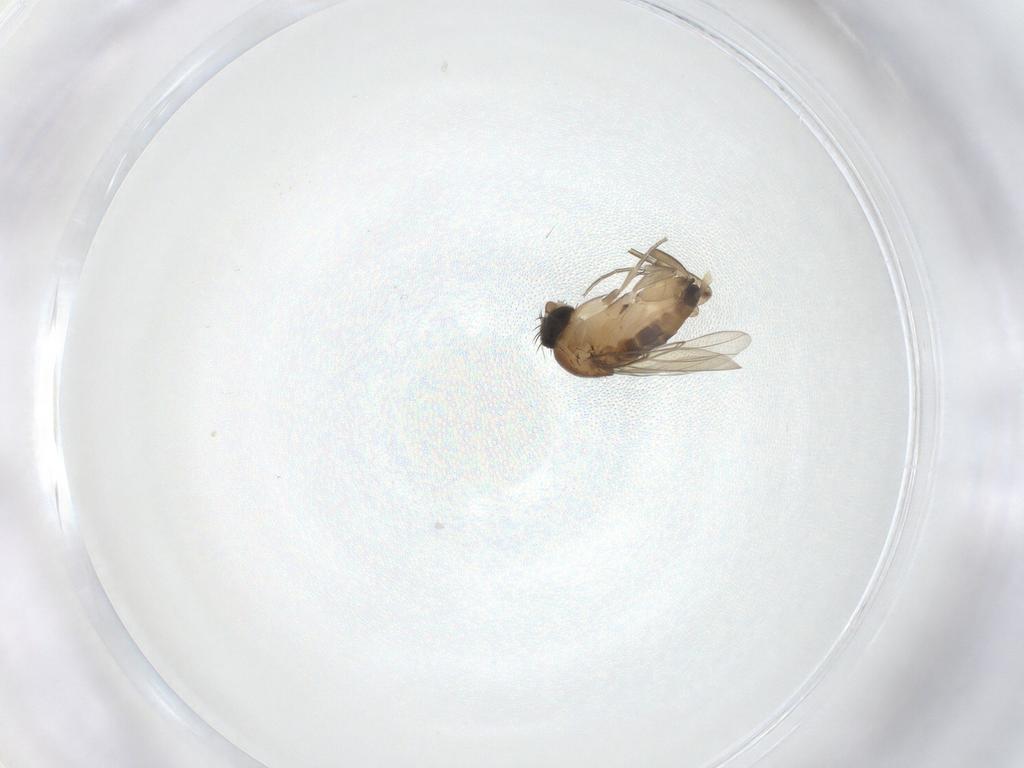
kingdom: Animalia
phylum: Arthropoda
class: Insecta
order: Diptera
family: Phoridae
